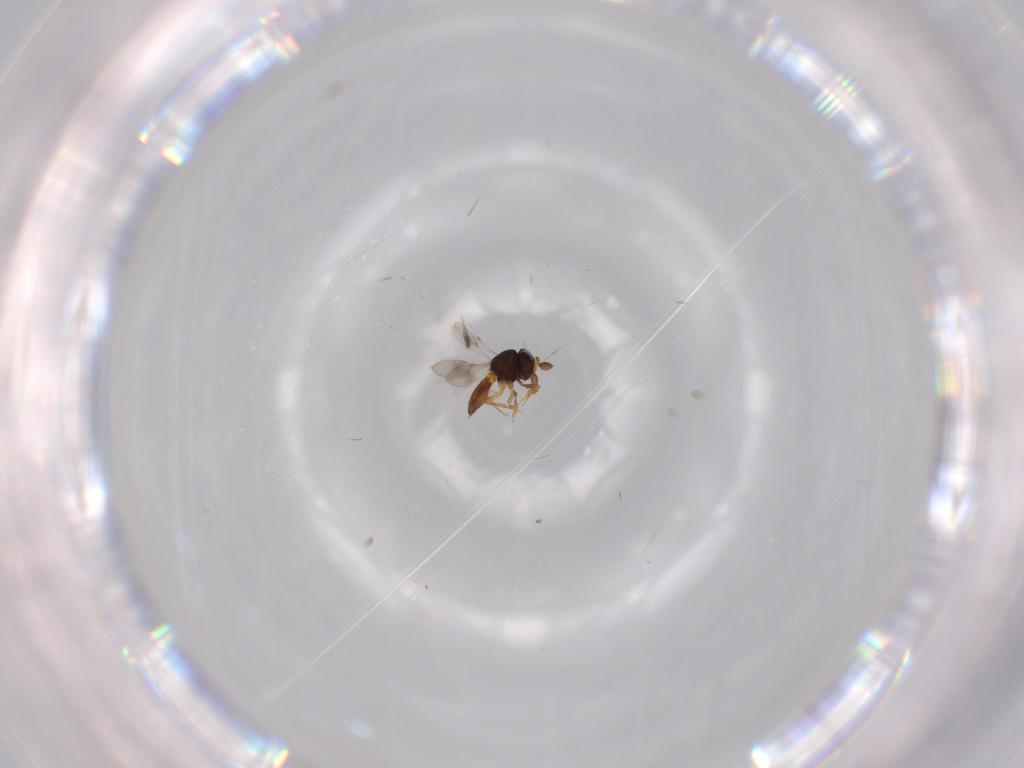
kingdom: Animalia
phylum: Arthropoda
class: Insecta
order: Hymenoptera
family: Scelionidae
